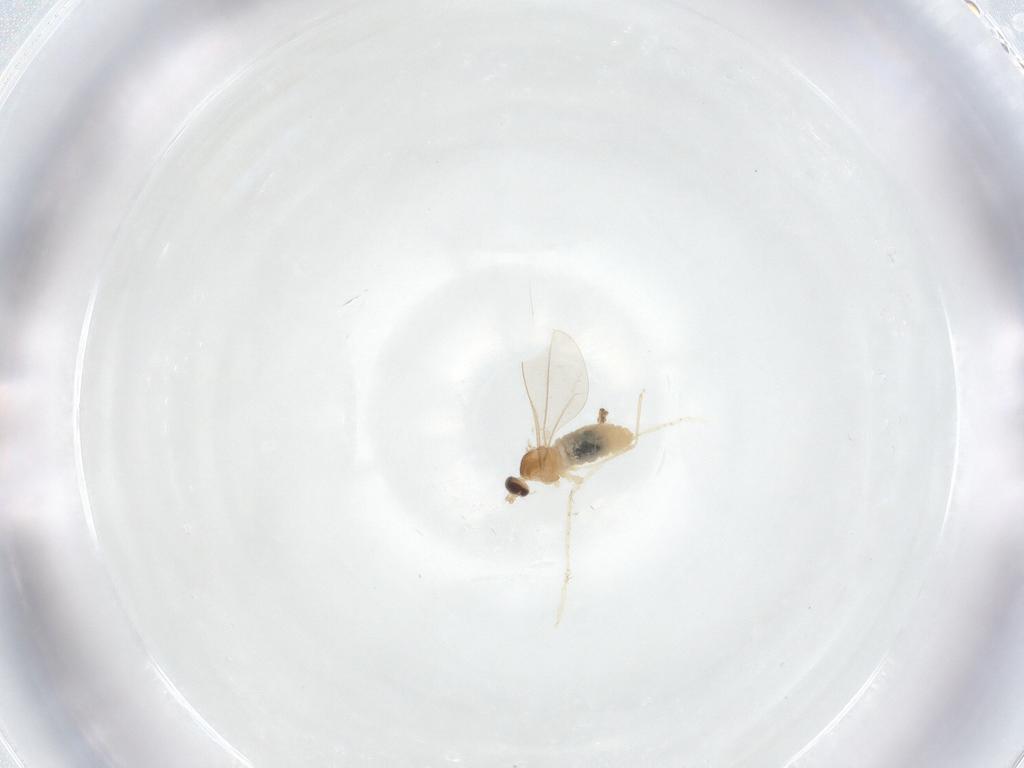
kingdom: Animalia
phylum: Arthropoda
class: Insecta
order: Diptera
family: Cecidomyiidae
